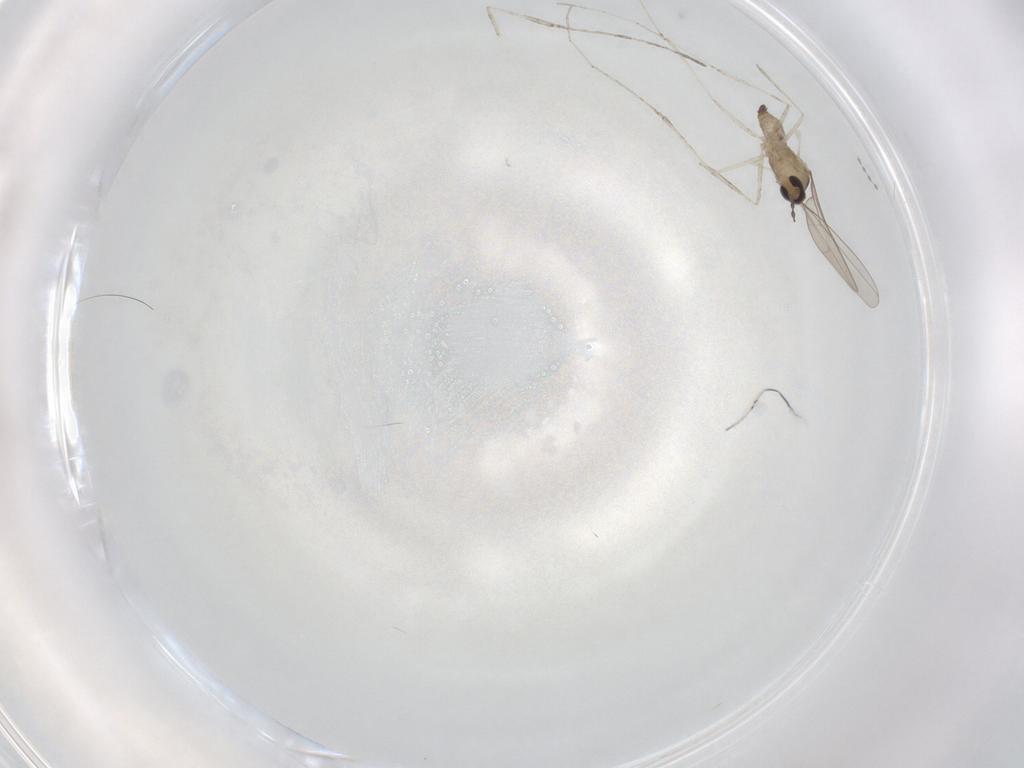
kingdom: Animalia
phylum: Arthropoda
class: Insecta
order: Diptera
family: Cecidomyiidae
